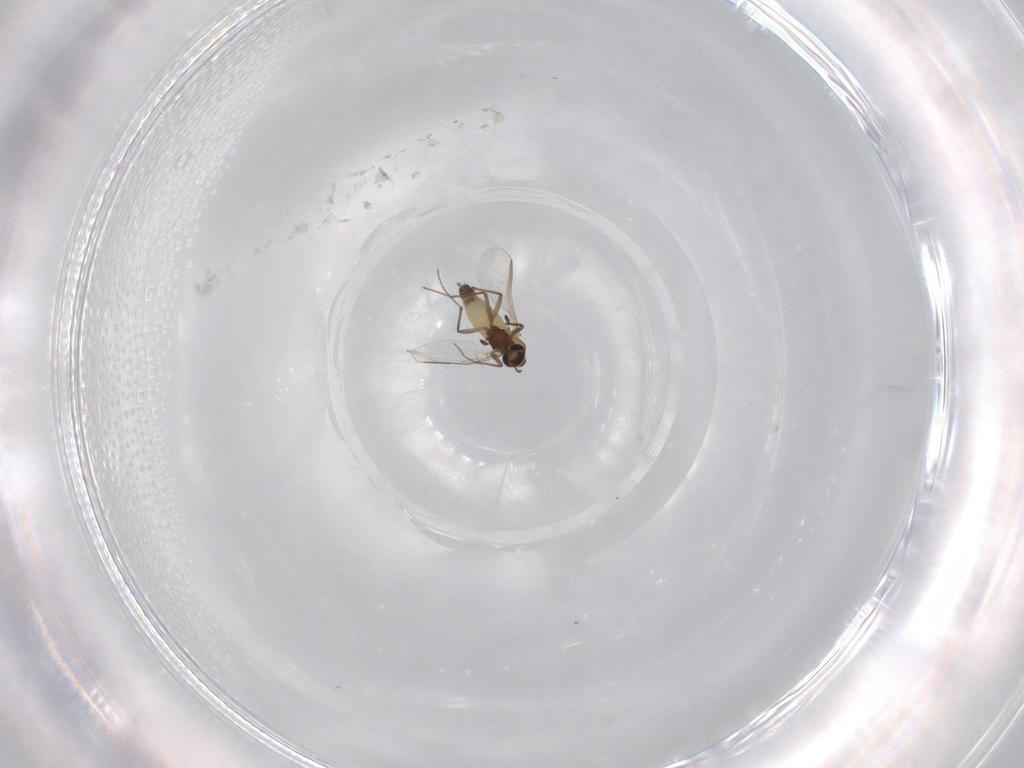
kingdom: Animalia
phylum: Arthropoda
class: Insecta
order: Diptera
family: Chironomidae
